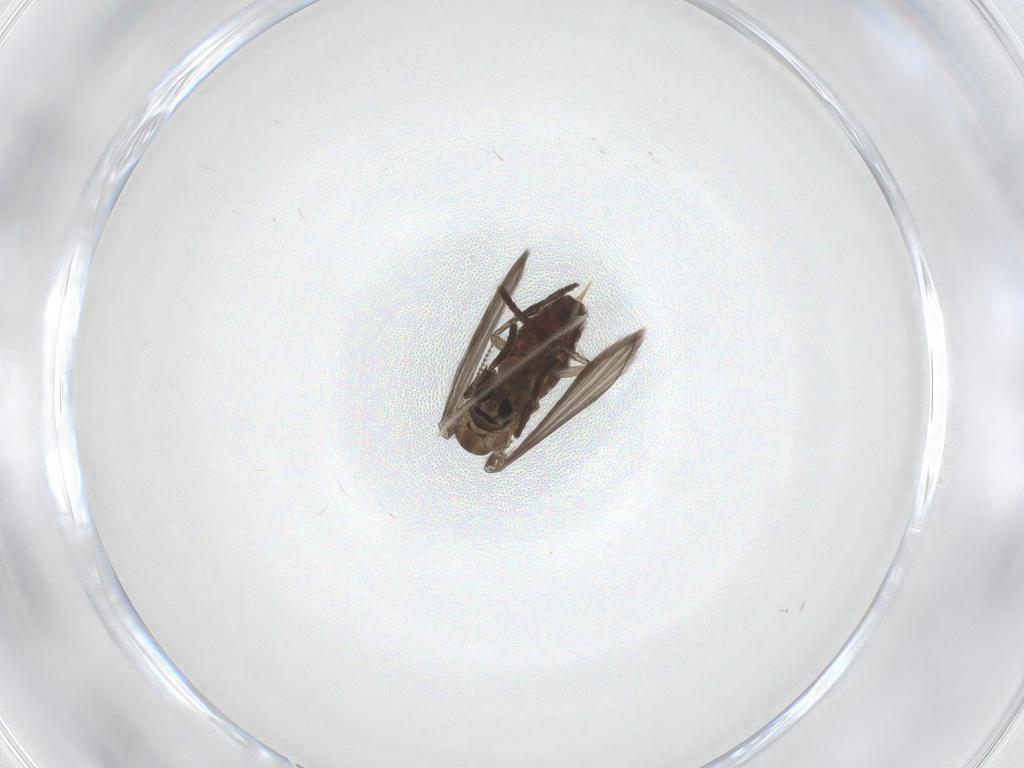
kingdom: Animalia
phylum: Arthropoda
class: Insecta
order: Diptera
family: Psychodidae
